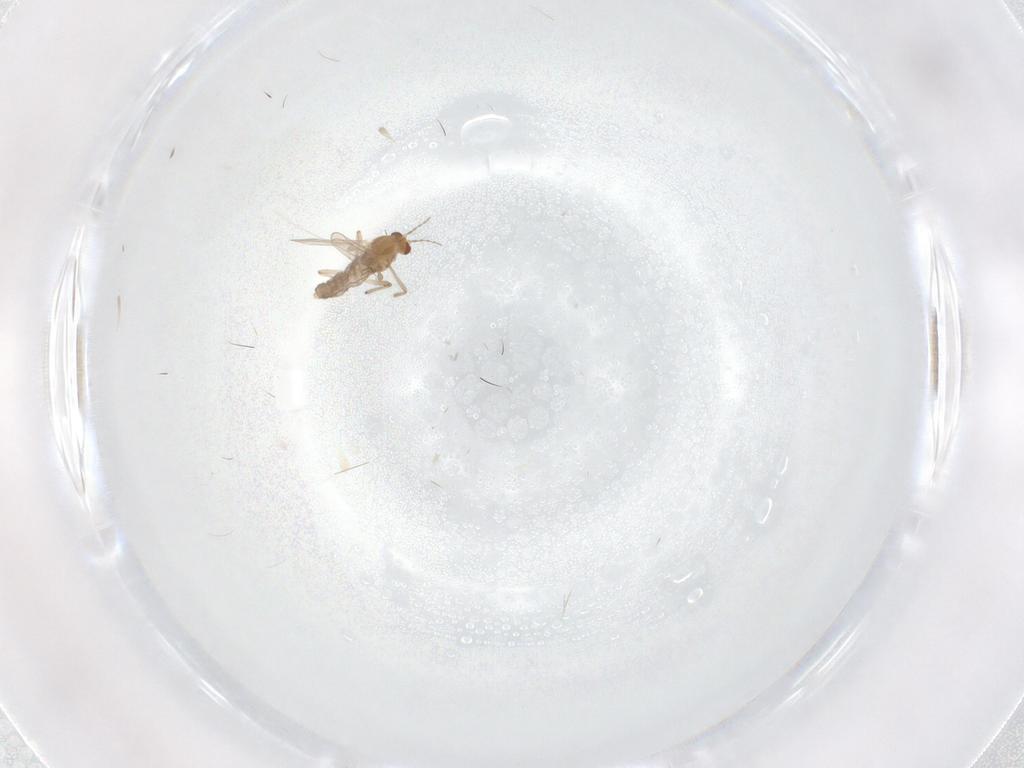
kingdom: Animalia
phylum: Arthropoda
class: Insecta
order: Diptera
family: Chironomidae
